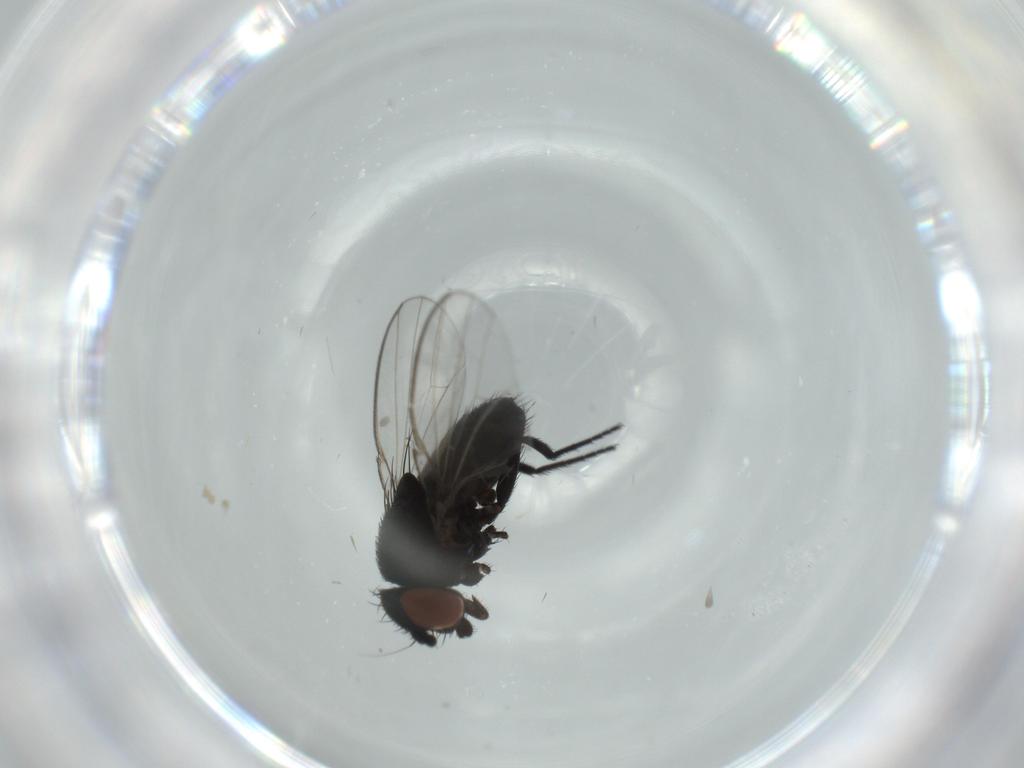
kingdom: Animalia
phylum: Arthropoda
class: Insecta
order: Diptera
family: Milichiidae
